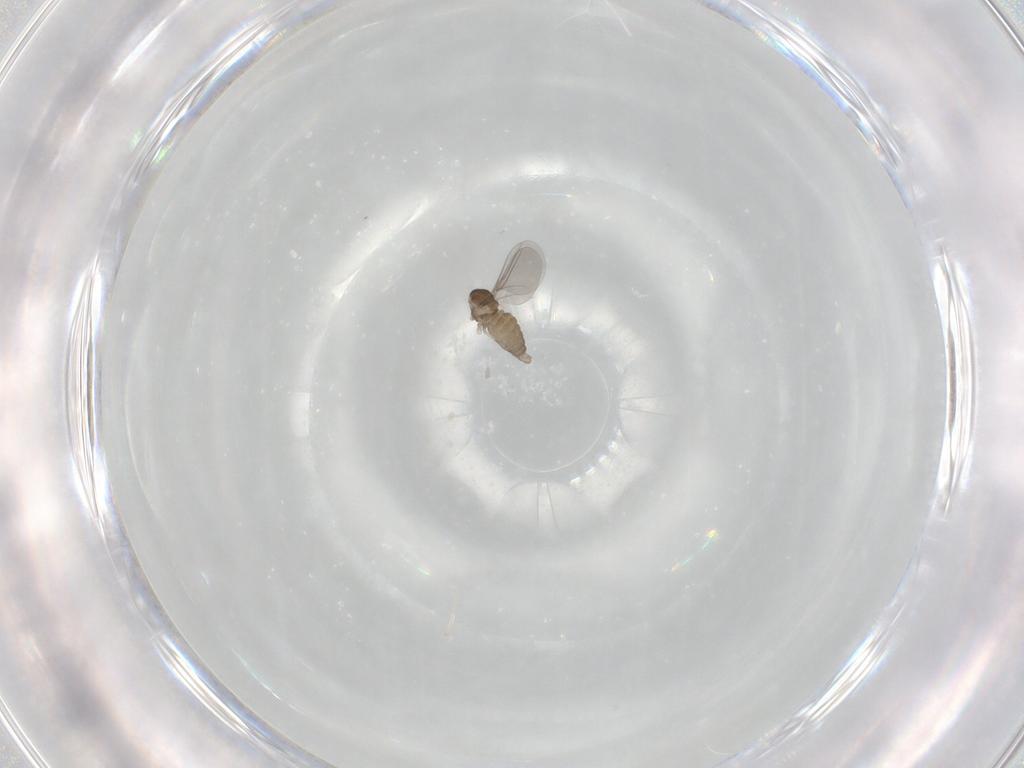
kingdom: Animalia
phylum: Arthropoda
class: Insecta
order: Diptera
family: Cecidomyiidae
